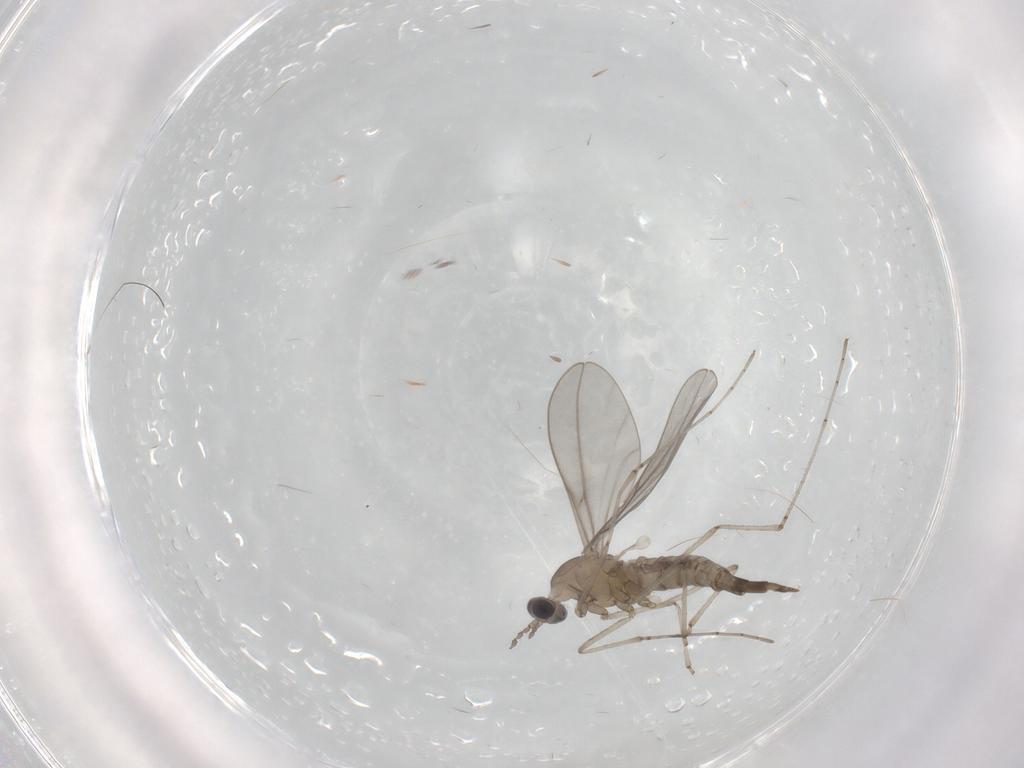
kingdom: Animalia
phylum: Arthropoda
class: Insecta
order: Diptera
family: Cecidomyiidae
